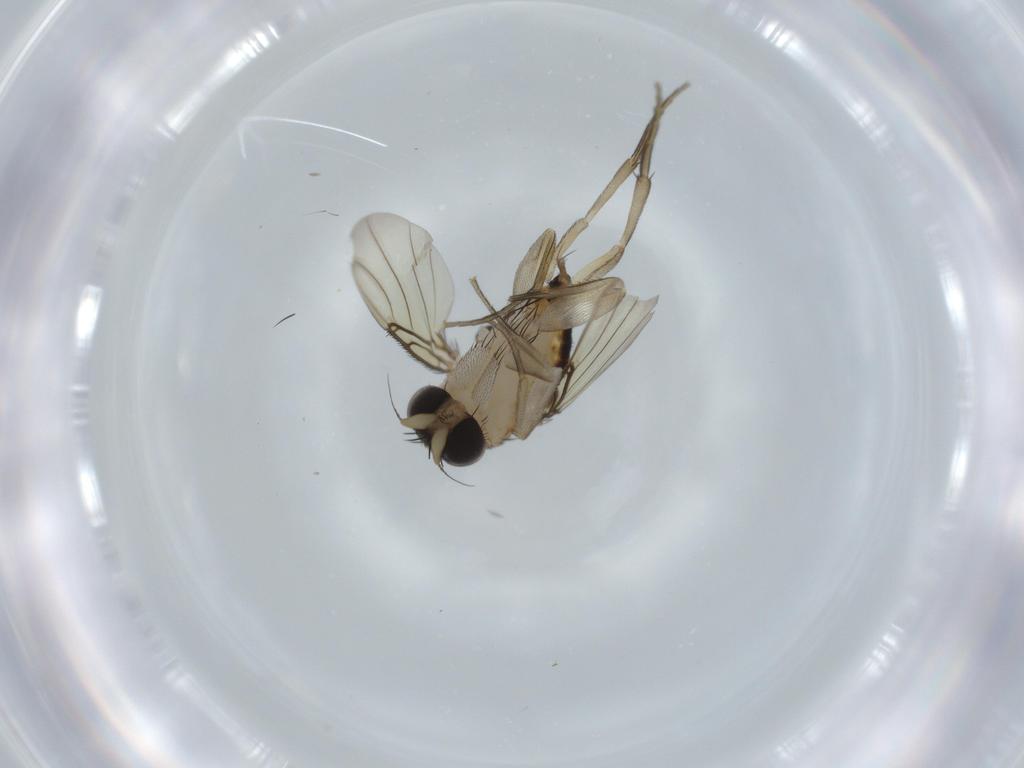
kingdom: Animalia
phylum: Arthropoda
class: Insecta
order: Diptera
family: Phoridae
